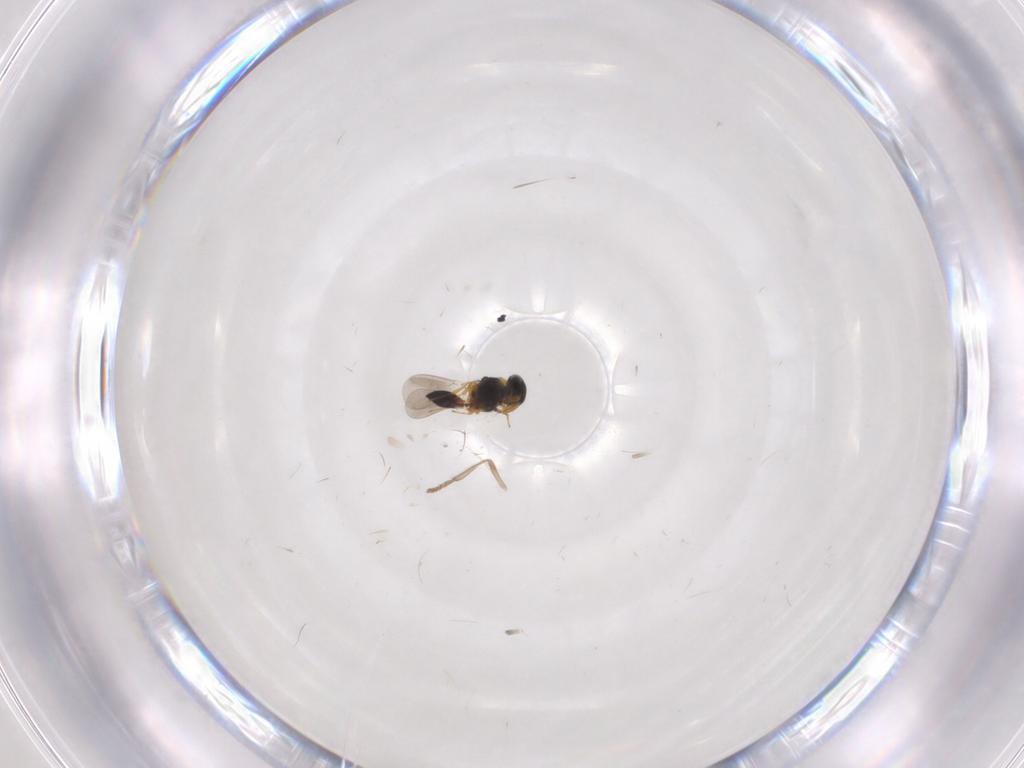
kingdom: Animalia
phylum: Arthropoda
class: Insecta
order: Hymenoptera
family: Platygastridae
